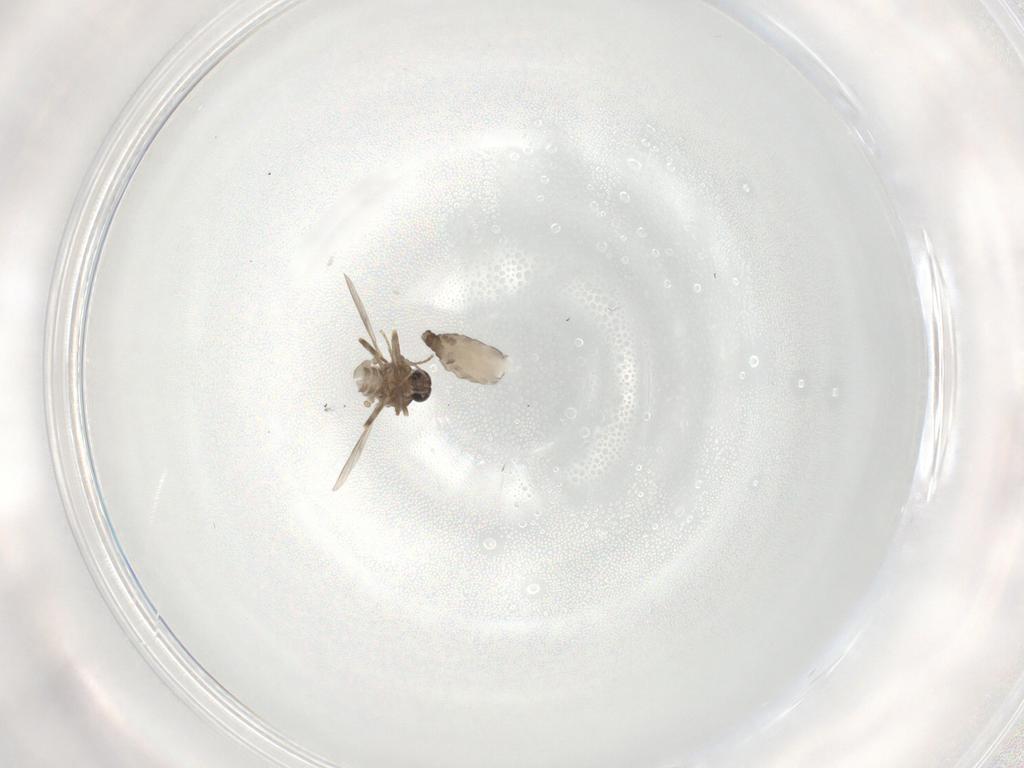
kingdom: Animalia
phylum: Arthropoda
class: Insecta
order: Diptera
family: Ceratopogonidae
